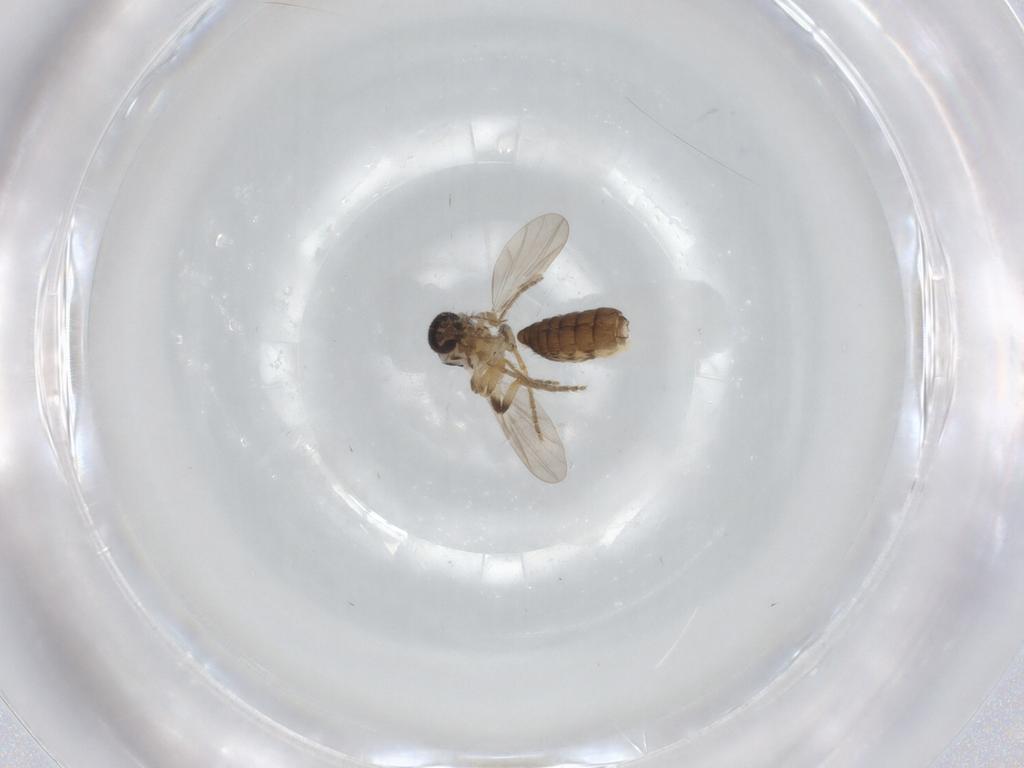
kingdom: Animalia
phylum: Arthropoda
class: Insecta
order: Diptera
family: Ceratopogonidae
